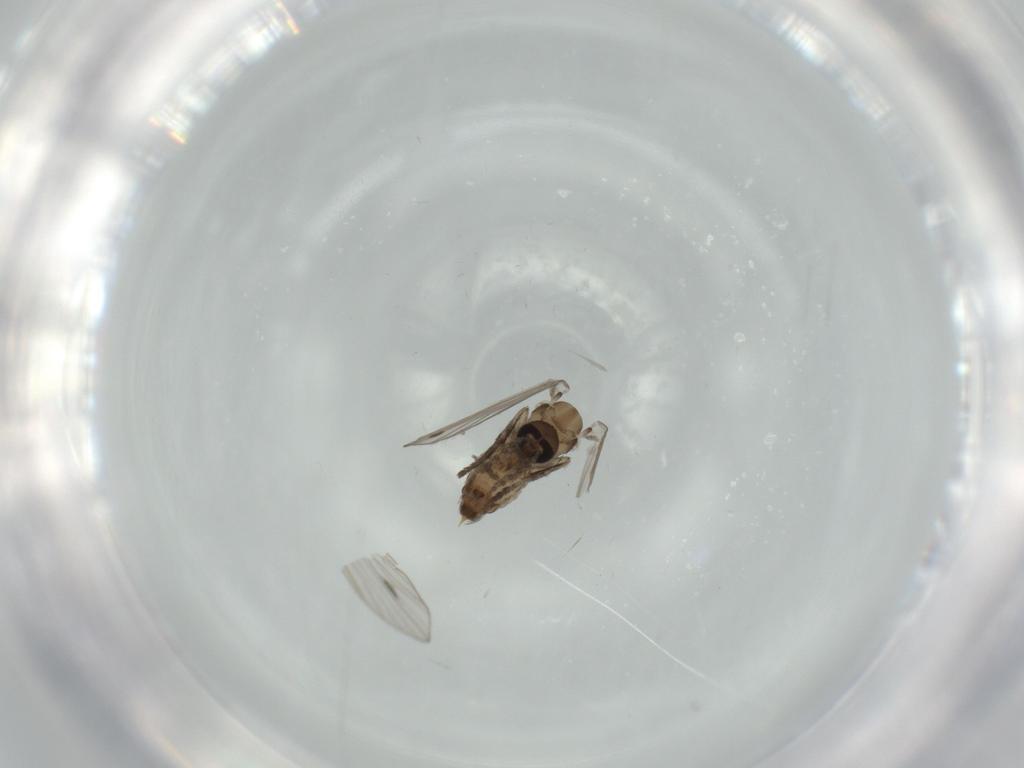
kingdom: Animalia
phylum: Arthropoda
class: Insecta
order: Diptera
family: Psychodidae
